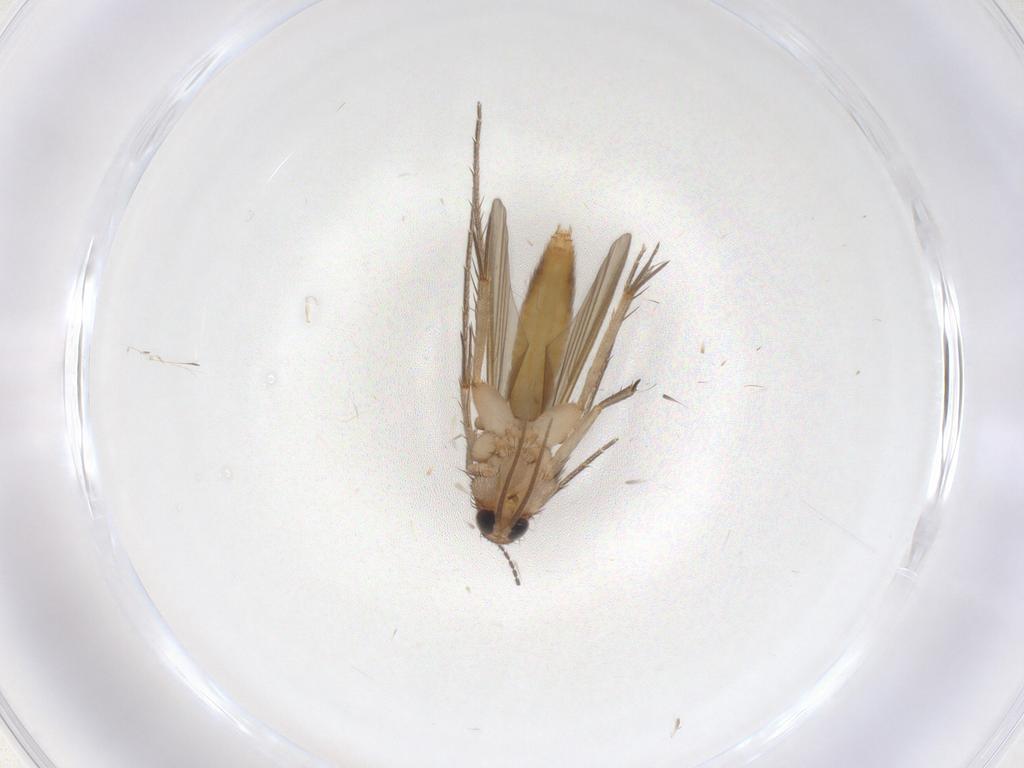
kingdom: Animalia
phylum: Arthropoda
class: Insecta
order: Diptera
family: Mycetophilidae
